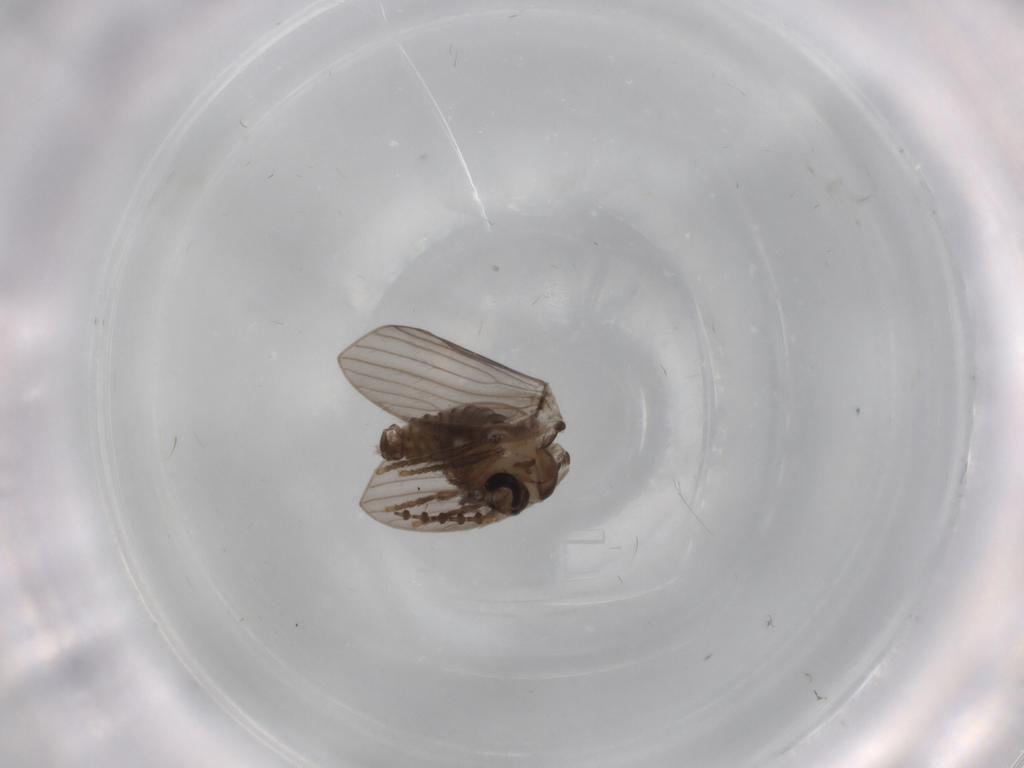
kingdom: Animalia
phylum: Arthropoda
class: Insecta
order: Diptera
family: Psychodidae
